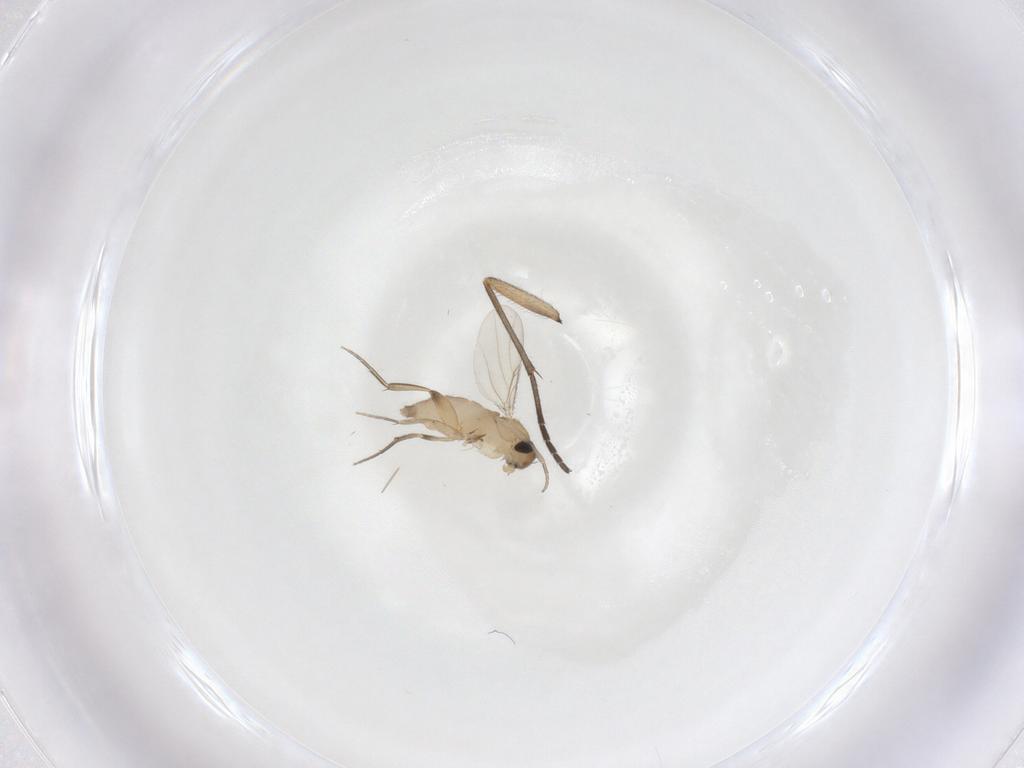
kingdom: Animalia
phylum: Arthropoda
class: Insecta
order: Diptera
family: Phoridae
